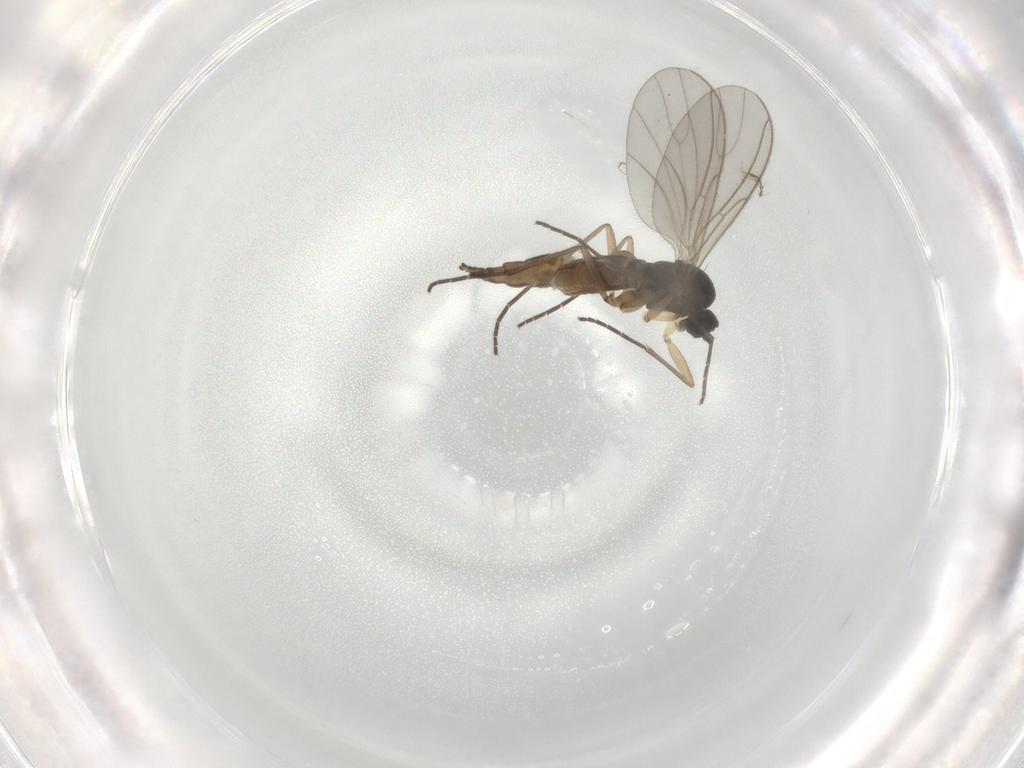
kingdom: Animalia
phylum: Arthropoda
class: Insecta
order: Diptera
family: Sciaridae
